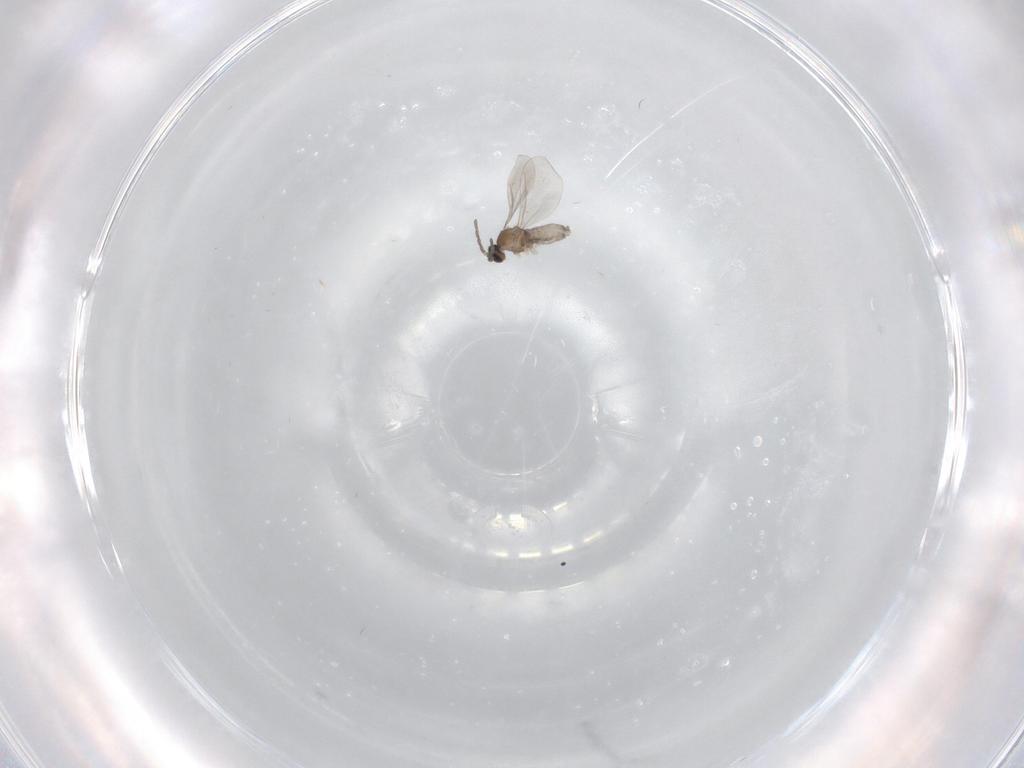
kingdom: Animalia
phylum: Arthropoda
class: Insecta
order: Diptera
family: Cecidomyiidae
